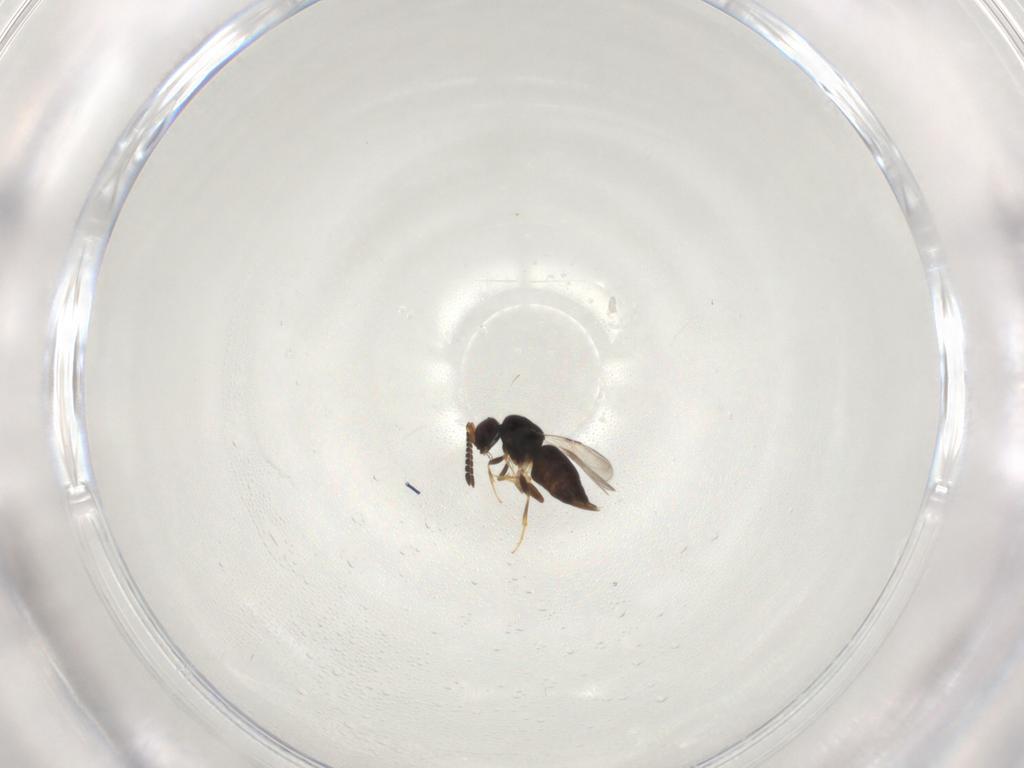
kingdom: Animalia
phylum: Arthropoda
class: Insecta
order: Hymenoptera
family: Ceraphronidae
